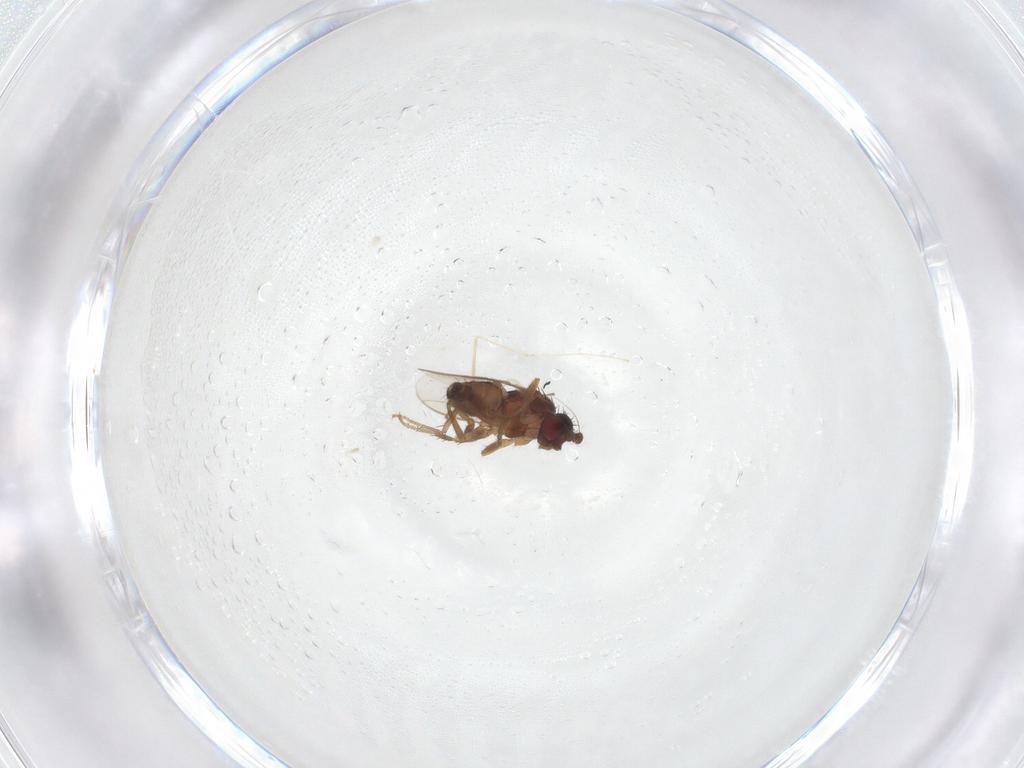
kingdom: Animalia
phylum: Arthropoda
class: Insecta
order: Diptera
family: Sphaeroceridae
